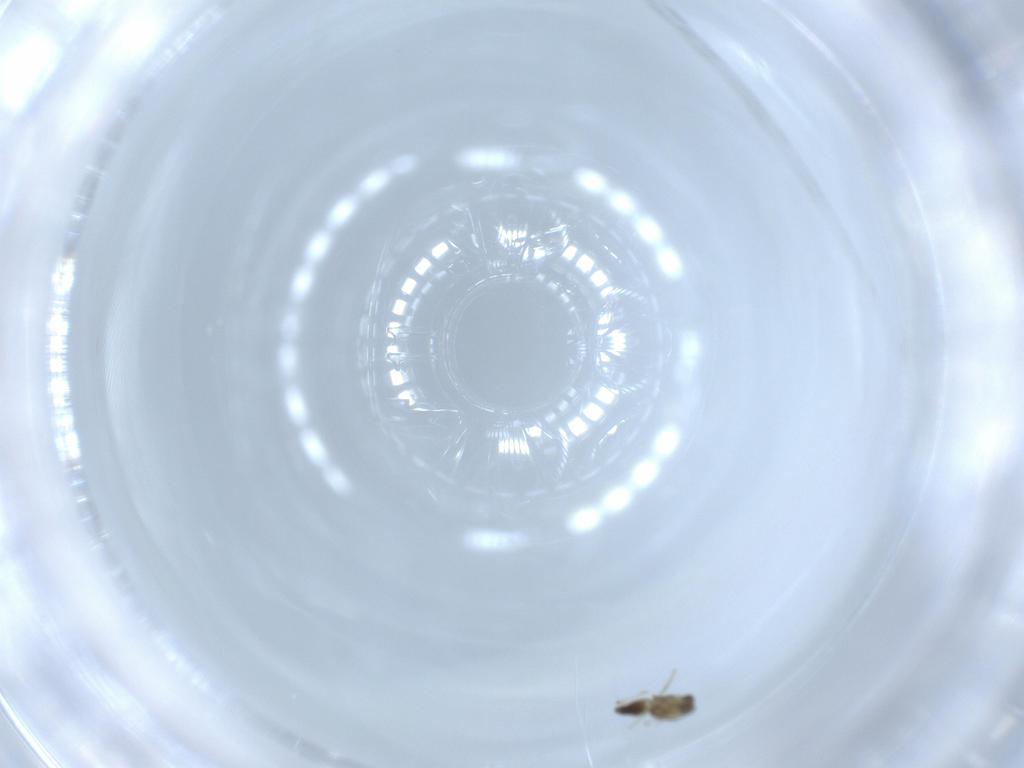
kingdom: Animalia
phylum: Arthropoda
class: Insecta
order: Diptera
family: Chironomidae
